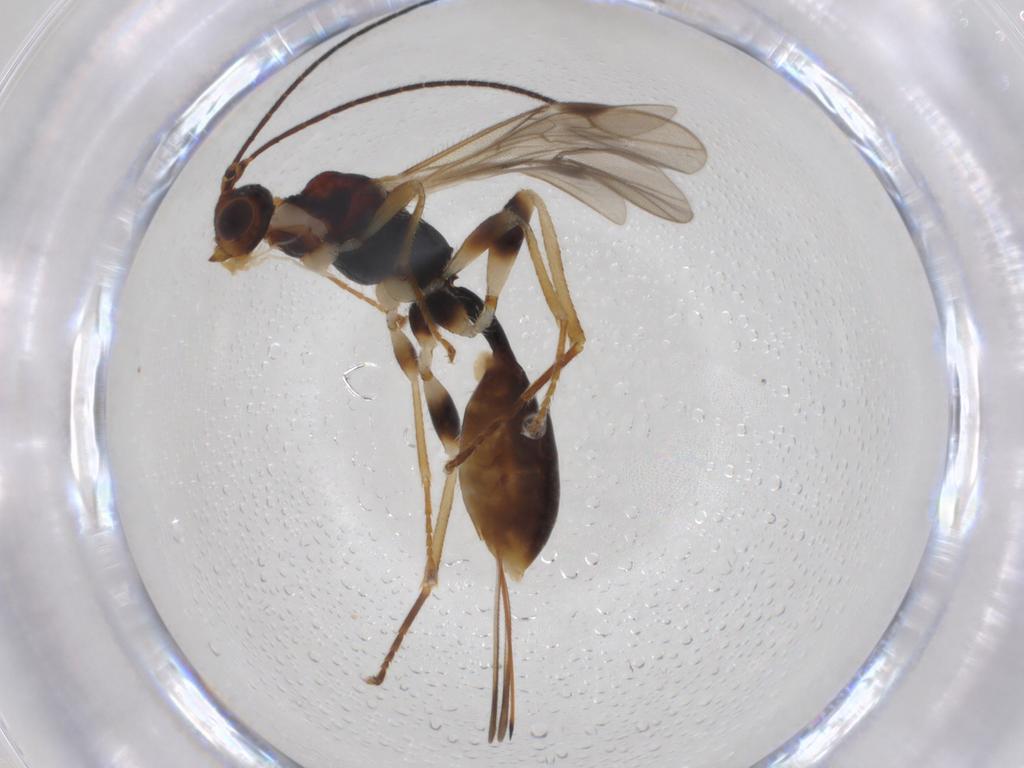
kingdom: Animalia
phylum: Arthropoda
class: Insecta
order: Hymenoptera
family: Braconidae
